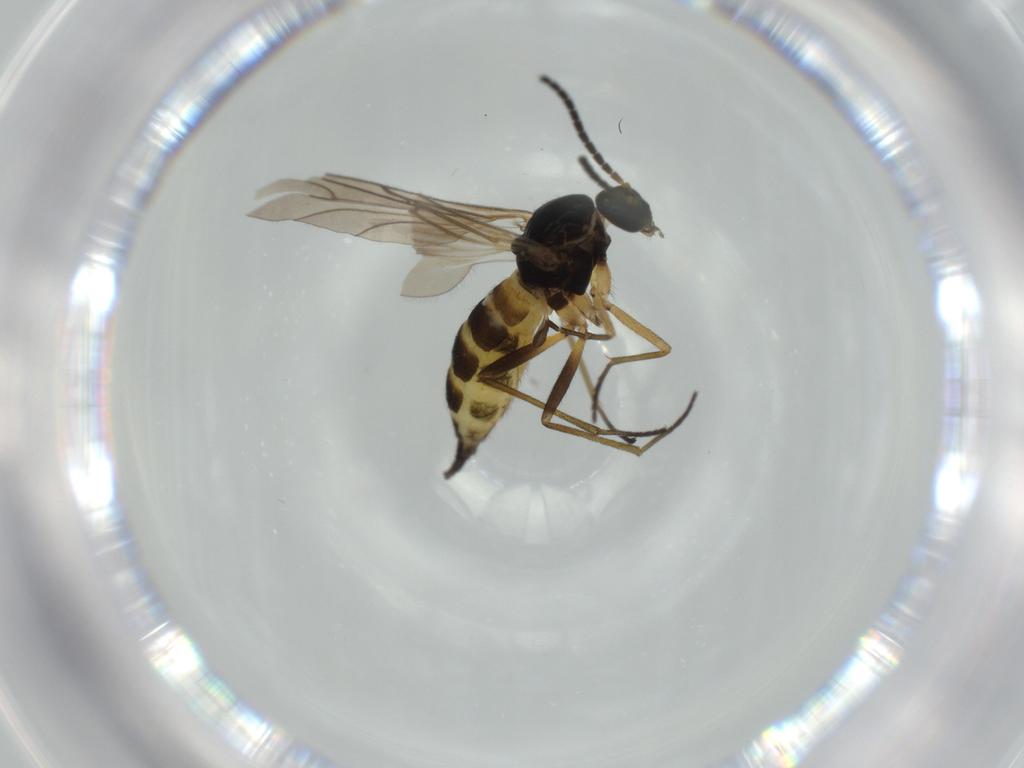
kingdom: Animalia
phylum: Arthropoda
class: Insecta
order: Diptera
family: Sciaridae
